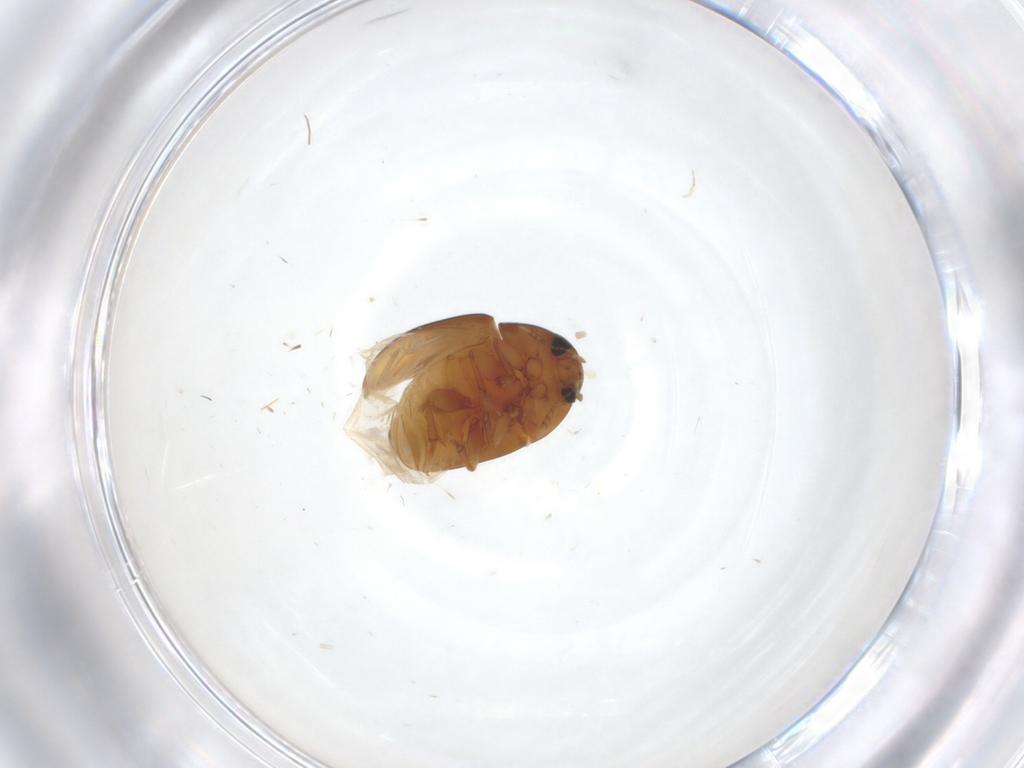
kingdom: Animalia
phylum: Arthropoda
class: Insecta
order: Coleoptera
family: Phalacridae
